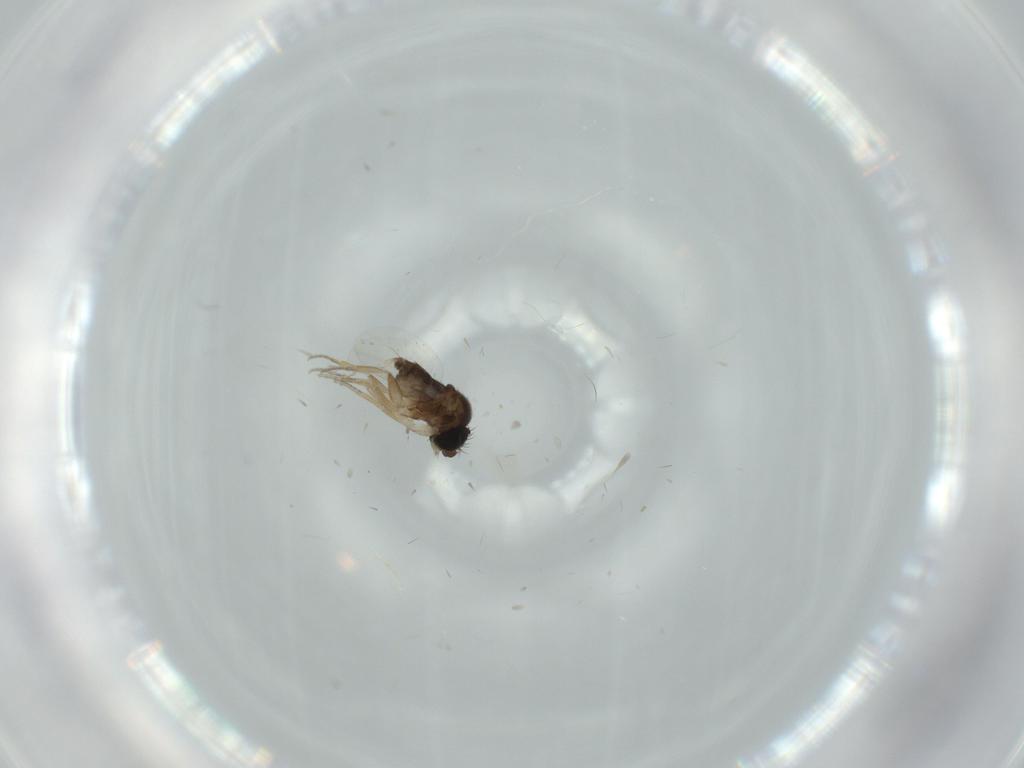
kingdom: Animalia
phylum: Arthropoda
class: Insecta
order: Diptera
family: Phoridae
